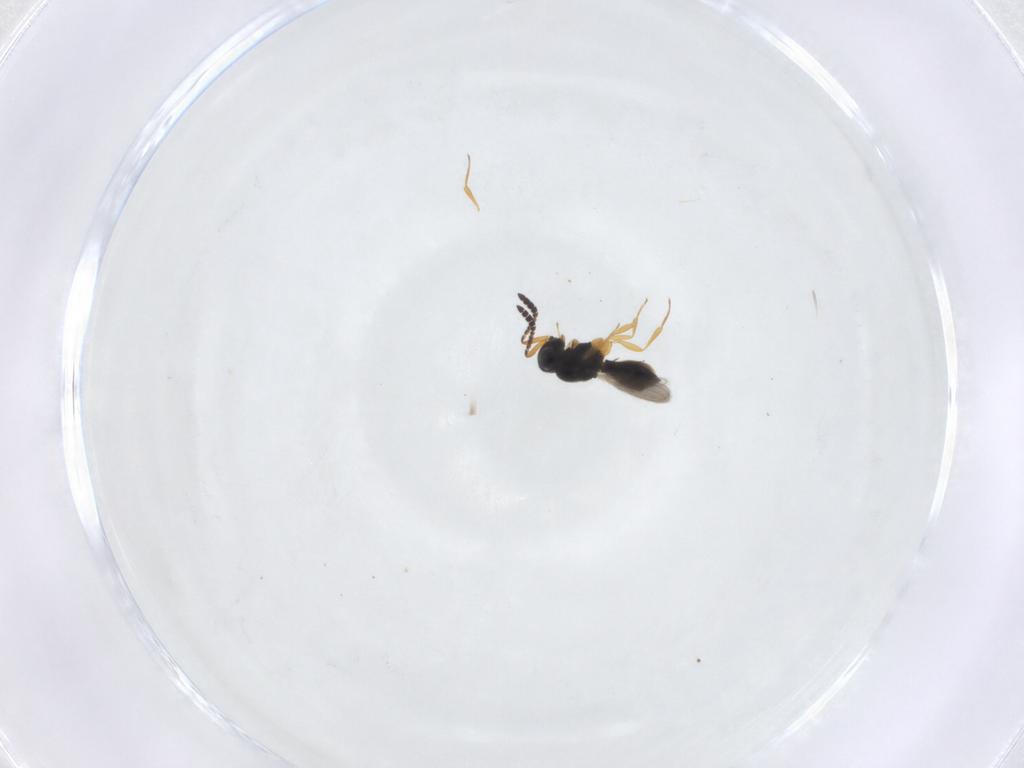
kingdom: Animalia
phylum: Arthropoda
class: Insecta
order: Hymenoptera
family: Scelionidae
